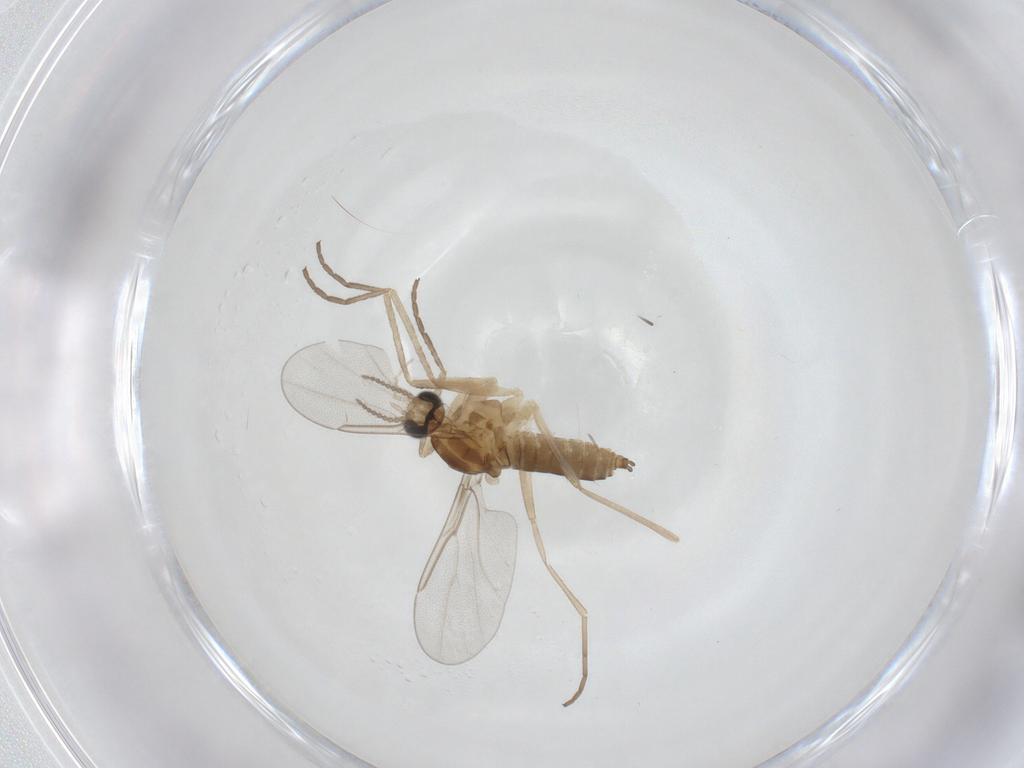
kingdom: Animalia
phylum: Arthropoda
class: Insecta
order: Diptera
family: Cecidomyiidae
